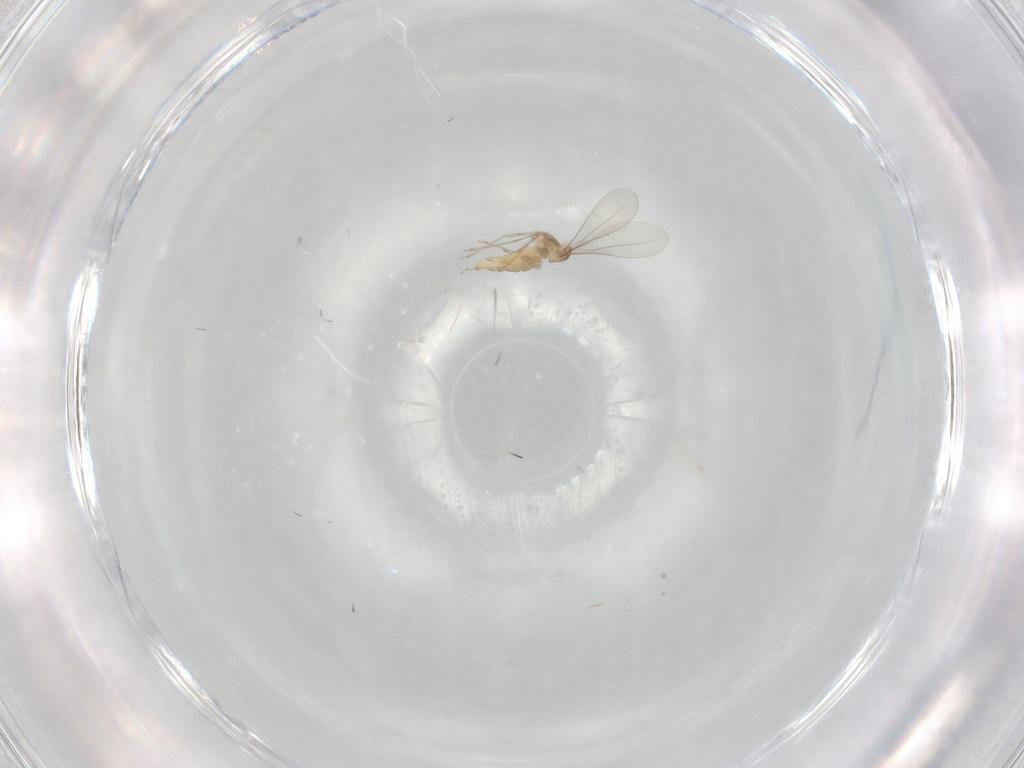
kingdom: Animalia
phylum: Arthropoda
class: Insecta
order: Diptera
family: Cecidomyiidae
